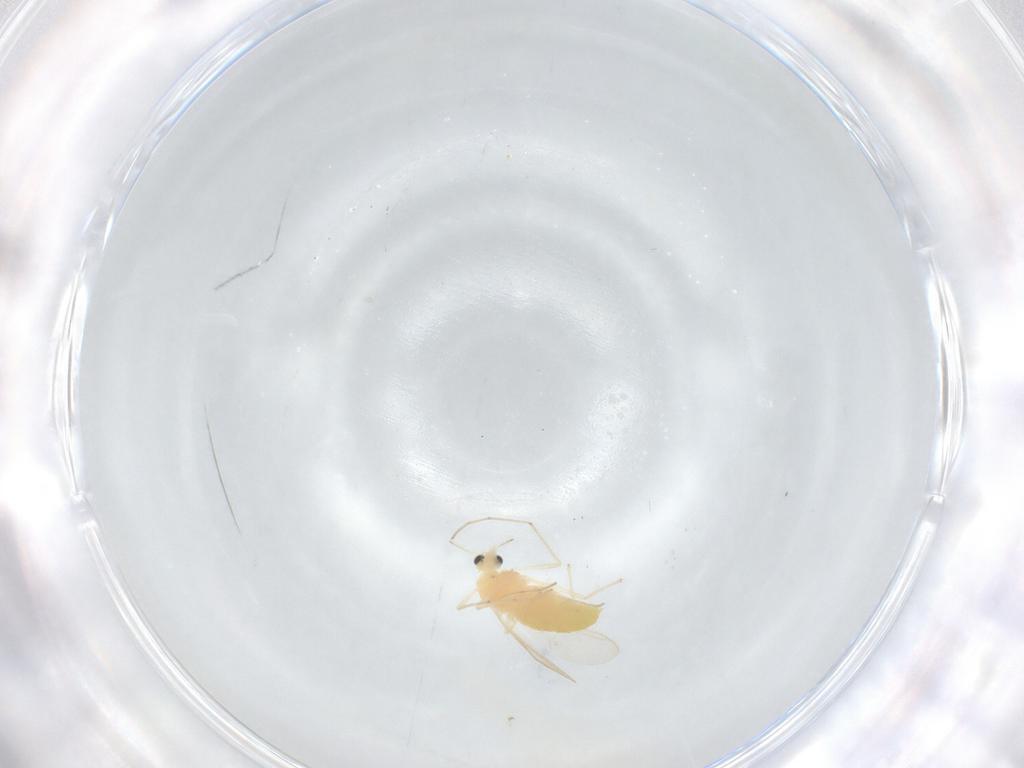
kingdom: Animalia
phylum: Arthropoda
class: Insecta
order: Diptera
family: Chironomidae
